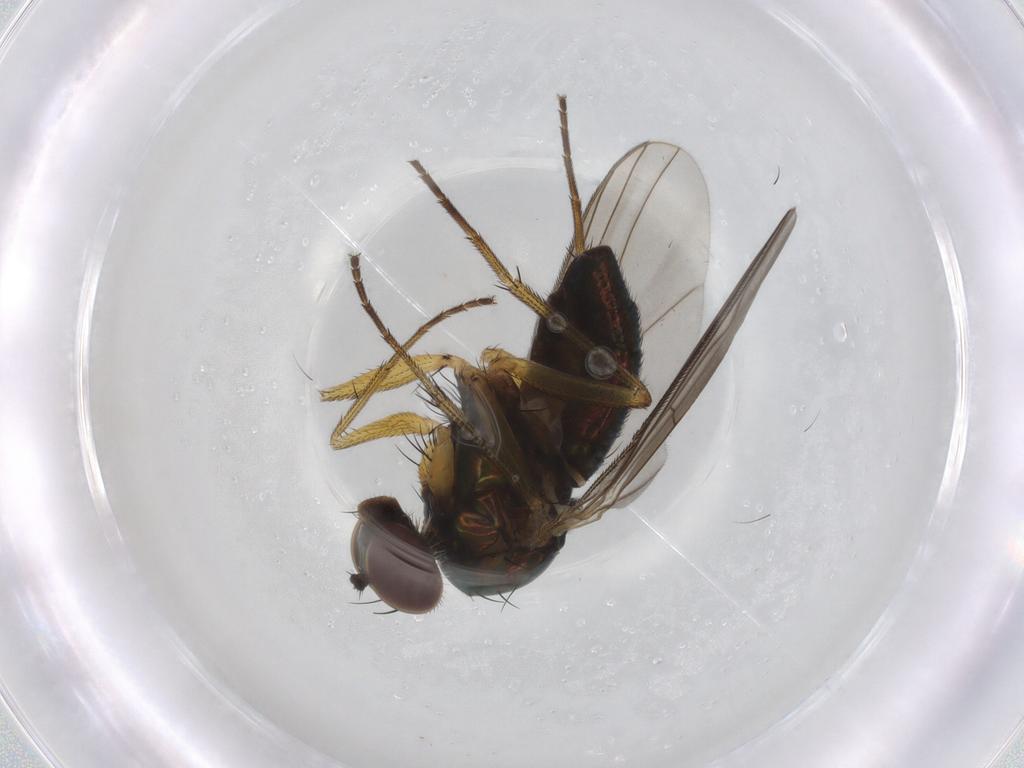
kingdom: Animalia
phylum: Arthropoda
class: Insecta
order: Diptera
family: Dolichopodidae
